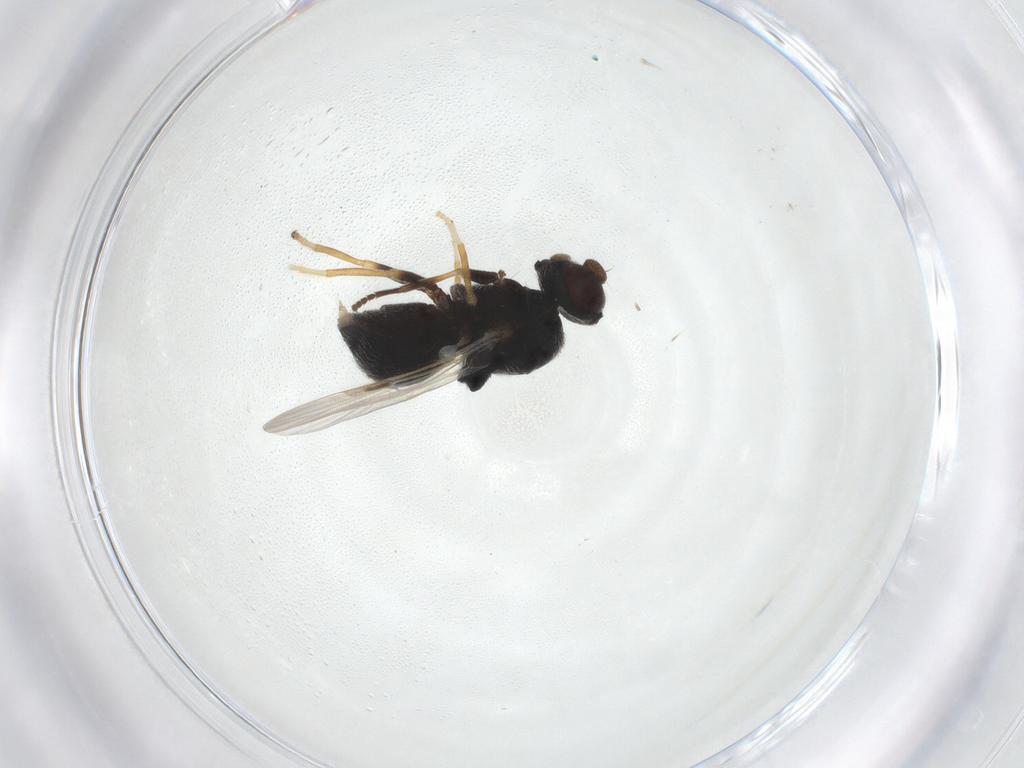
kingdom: Animalia
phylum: Arthropoda
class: Insecta
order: Diptera
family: Stratiomyidae
